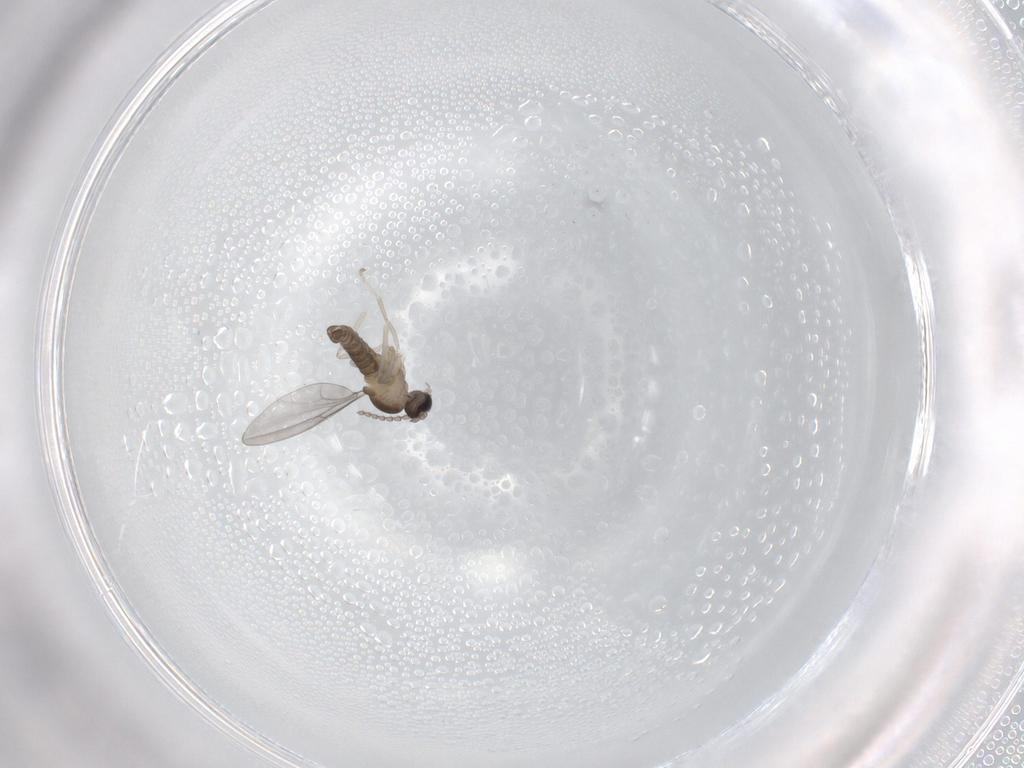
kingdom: Animalia
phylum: Arthropoda
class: Insecta
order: Diptera
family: Cecidomyiidae
